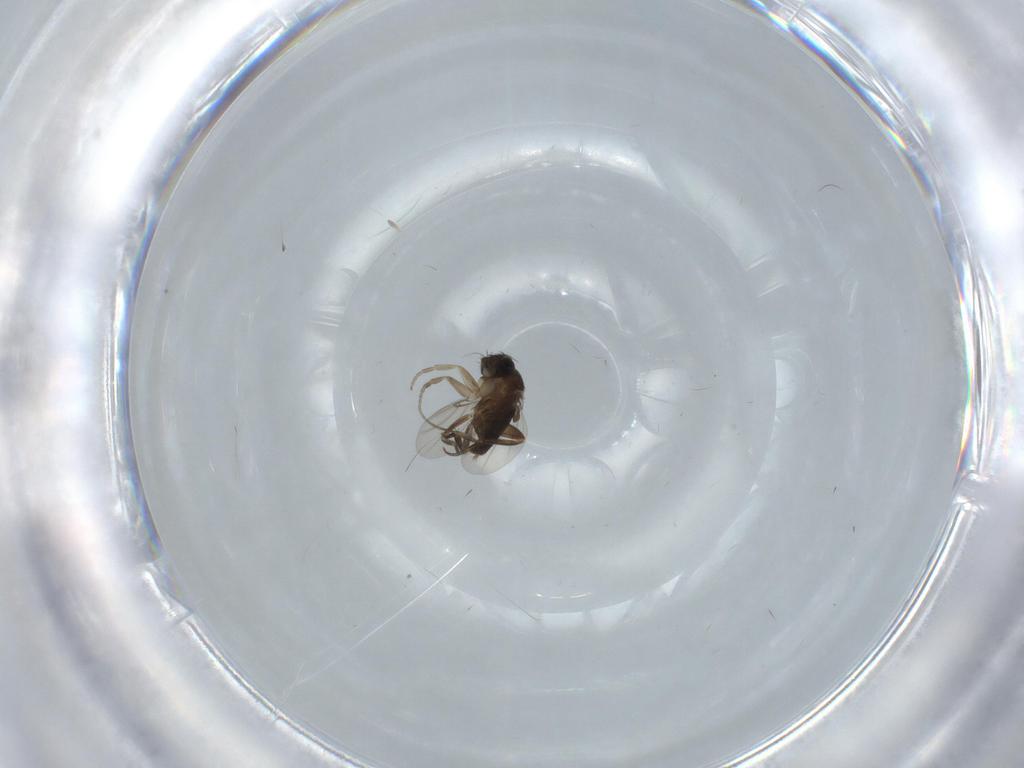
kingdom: Animalia
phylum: Arthropoda
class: Insecta
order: Diptera
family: Phoridae
